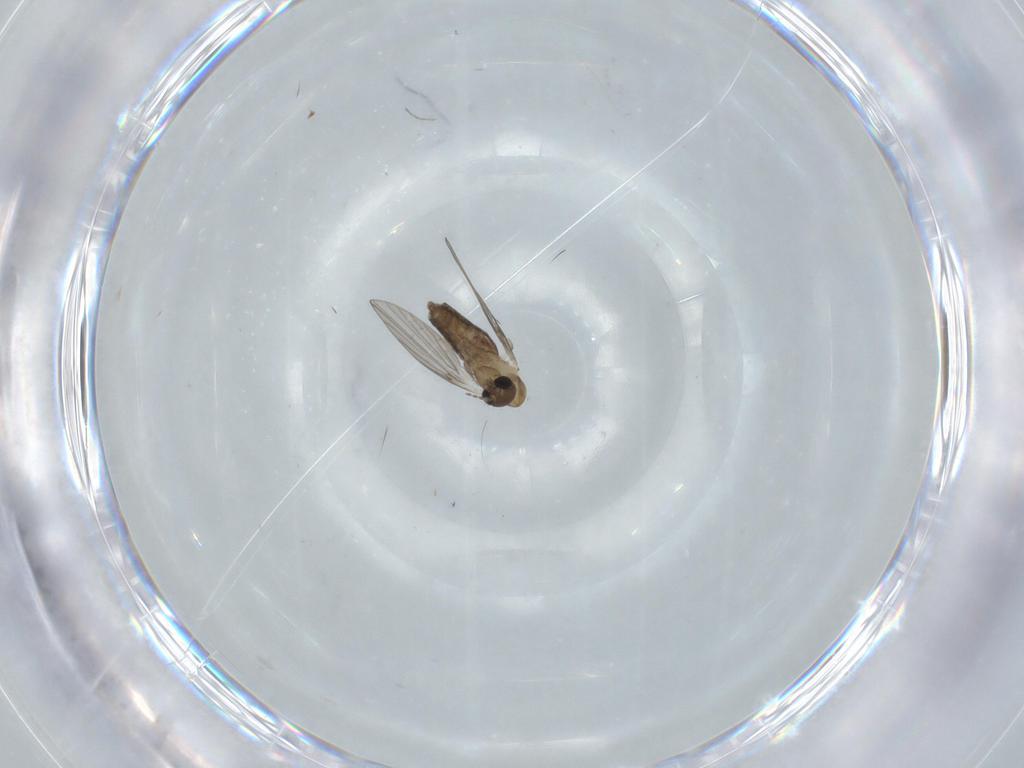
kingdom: Animalia
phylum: Arthropoda
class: Insecta
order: Diptera
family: Psychodidae
